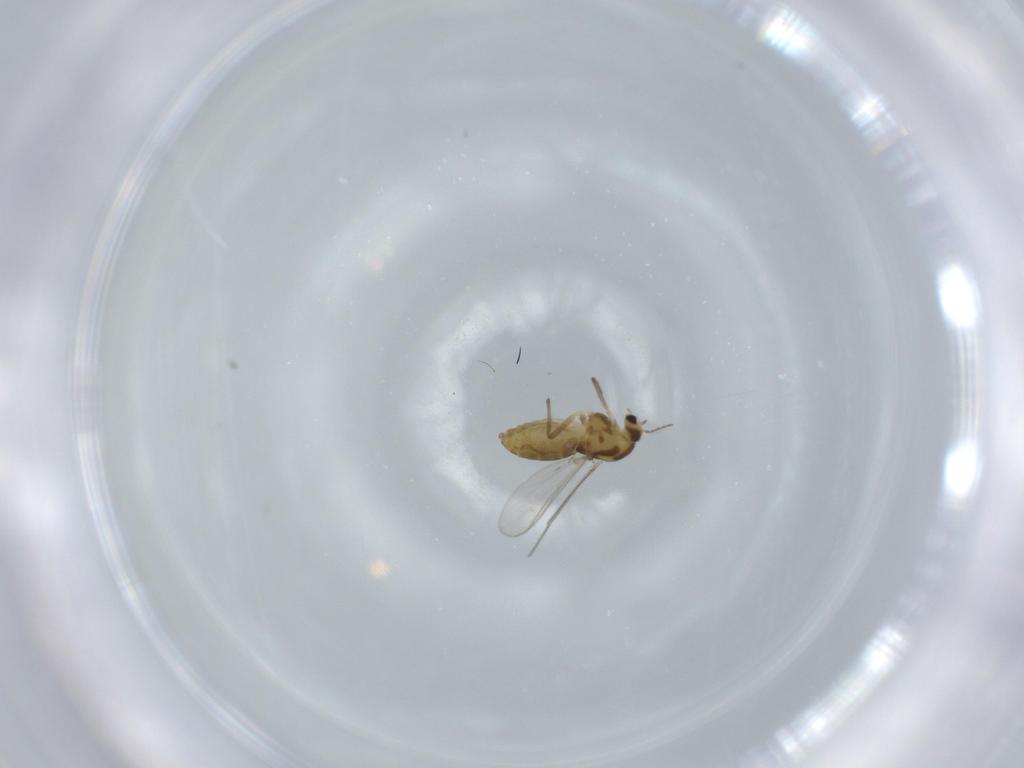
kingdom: Animalia
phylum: Arthropoda
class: Insecta
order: Diptera
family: Chironomidae
